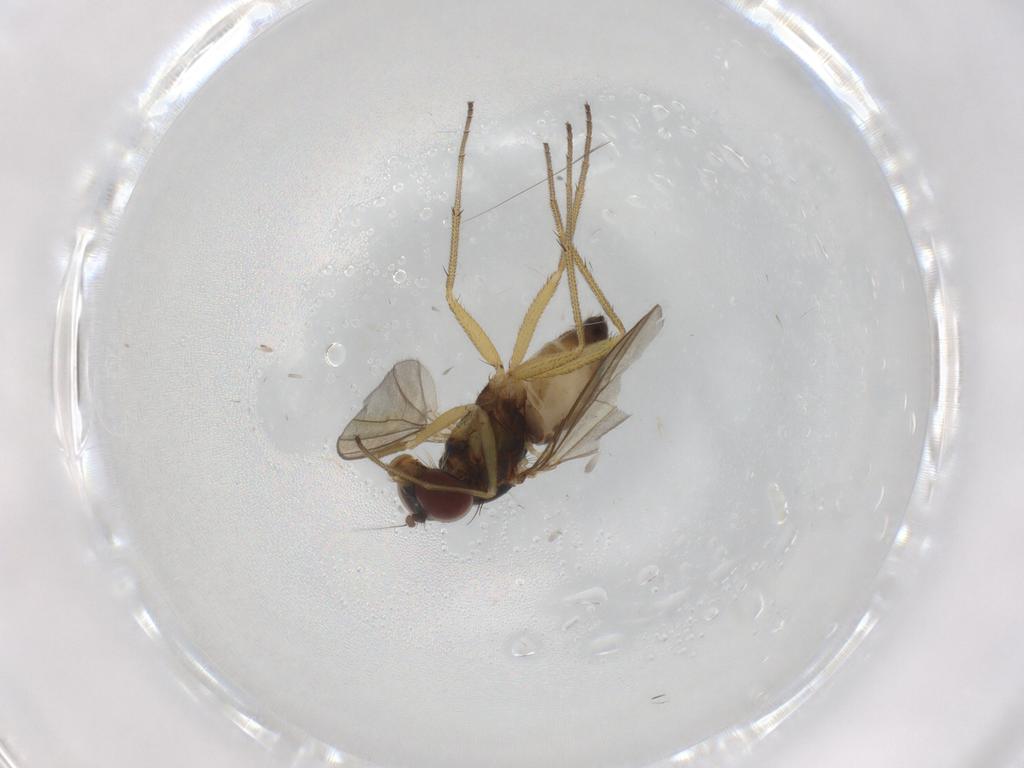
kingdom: Animalia
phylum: Arthropoda
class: Insecta
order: Diptera
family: Dolichopodidae
